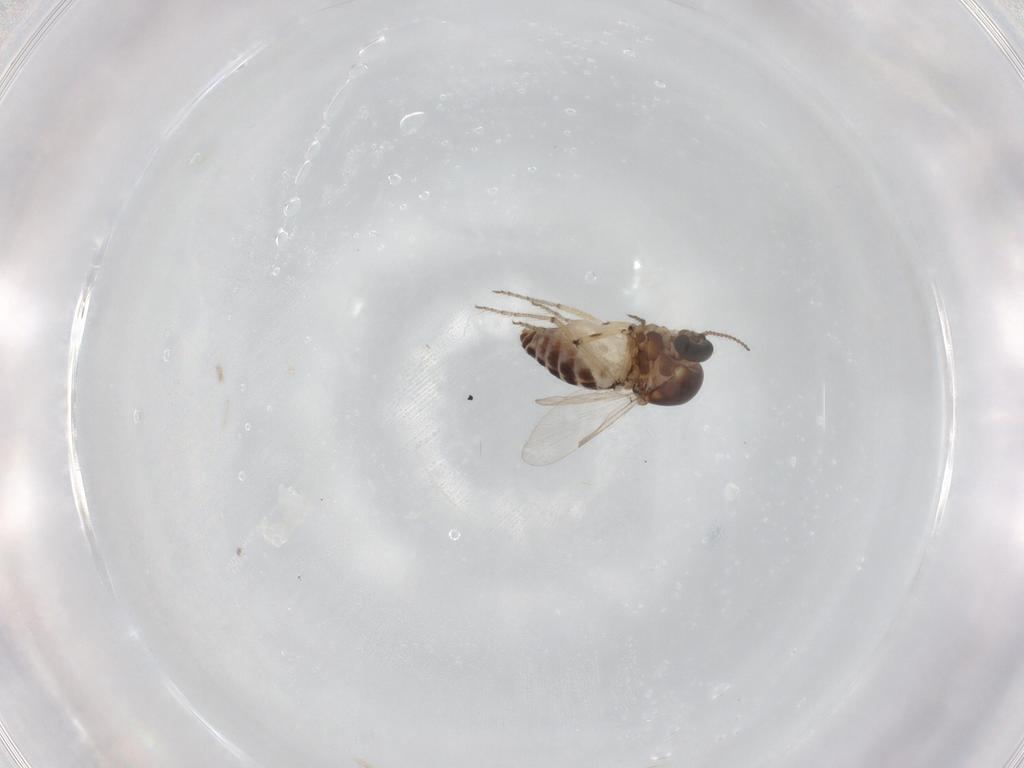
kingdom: Animalia
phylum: Arthropoda
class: Insecta
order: Diptera
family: Ceratopogonidae
